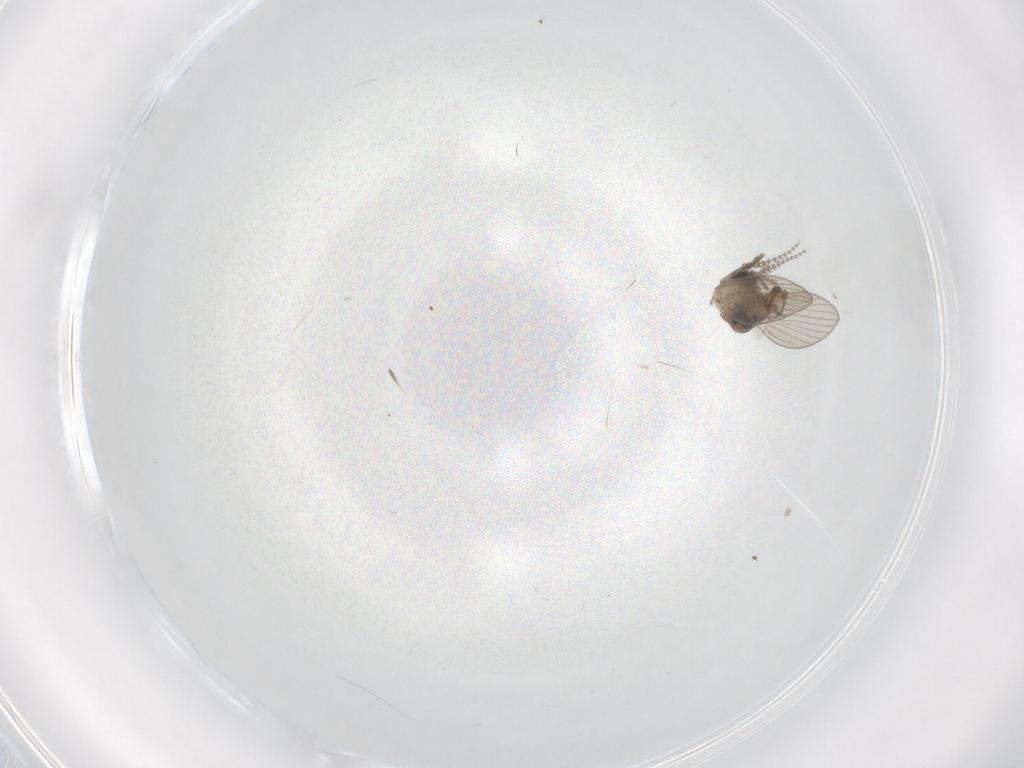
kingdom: Animalia
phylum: Arthropoda
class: Insecta
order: Diptera
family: Psychodidae
